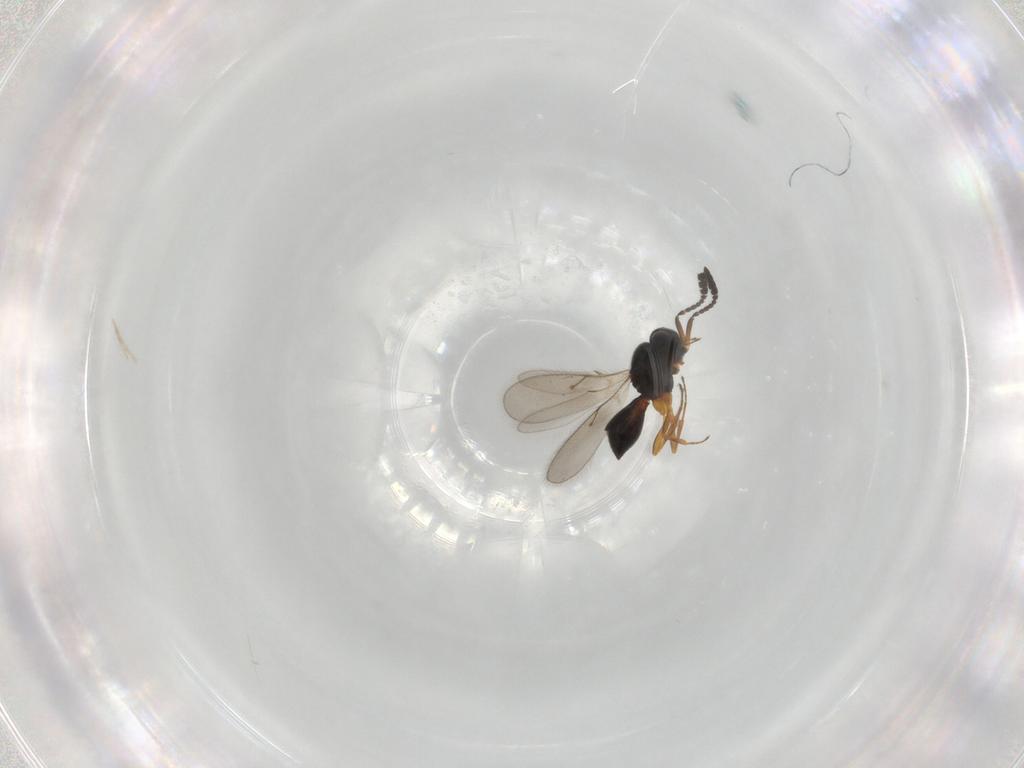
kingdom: Animalia
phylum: Arthropoda
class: Insecta
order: Hymenoptera
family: Scelionidae
